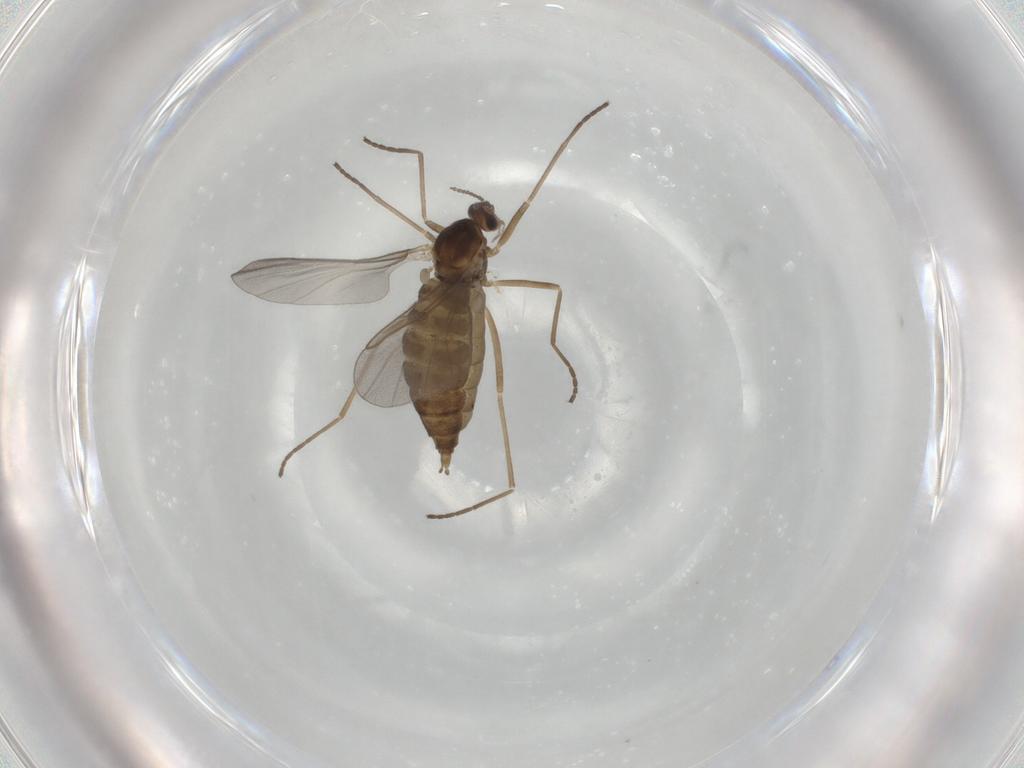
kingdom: Animalia
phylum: Arthropoda
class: Insecta
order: Diptera
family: Cecidomyiidae
